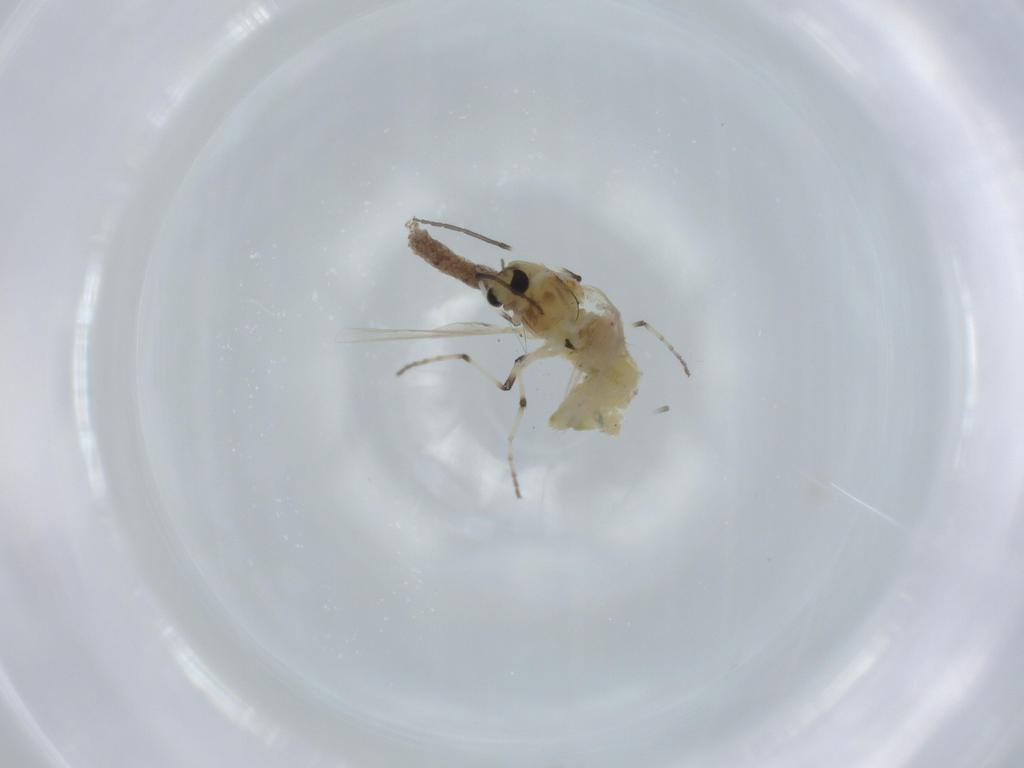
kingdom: Animalia
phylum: Arthropoda
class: Insecta
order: Diptera
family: Chironomidae
